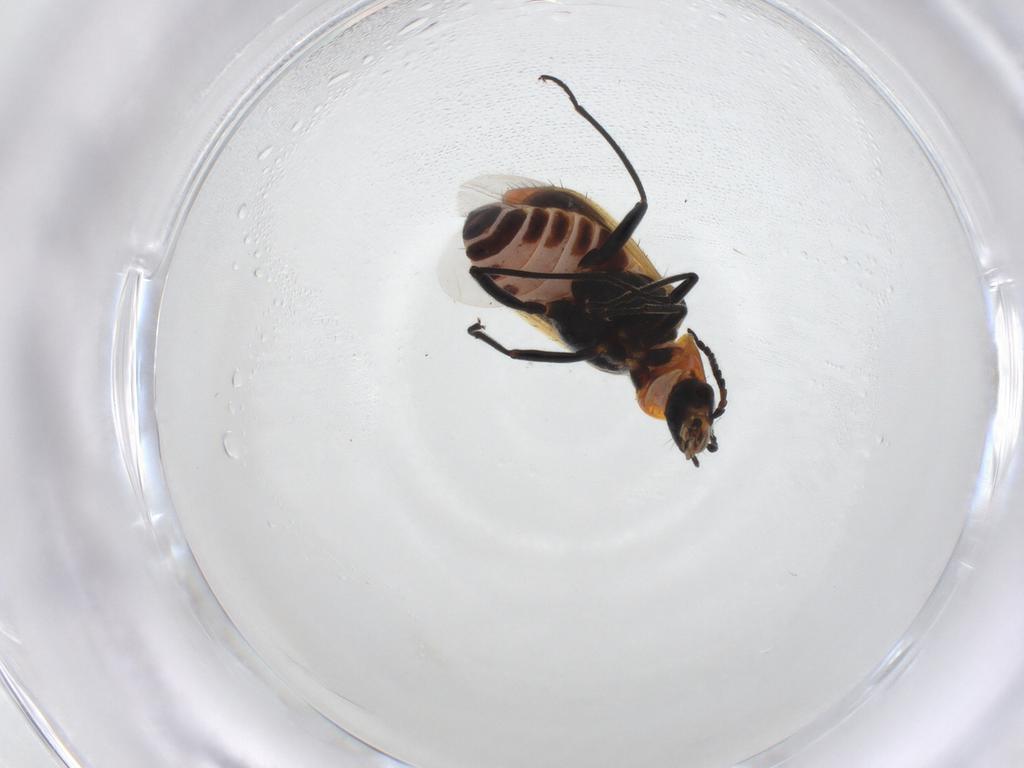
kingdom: Animalia
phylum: Arthropoda
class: Insecta
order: Coleoptera
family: Melyridae
